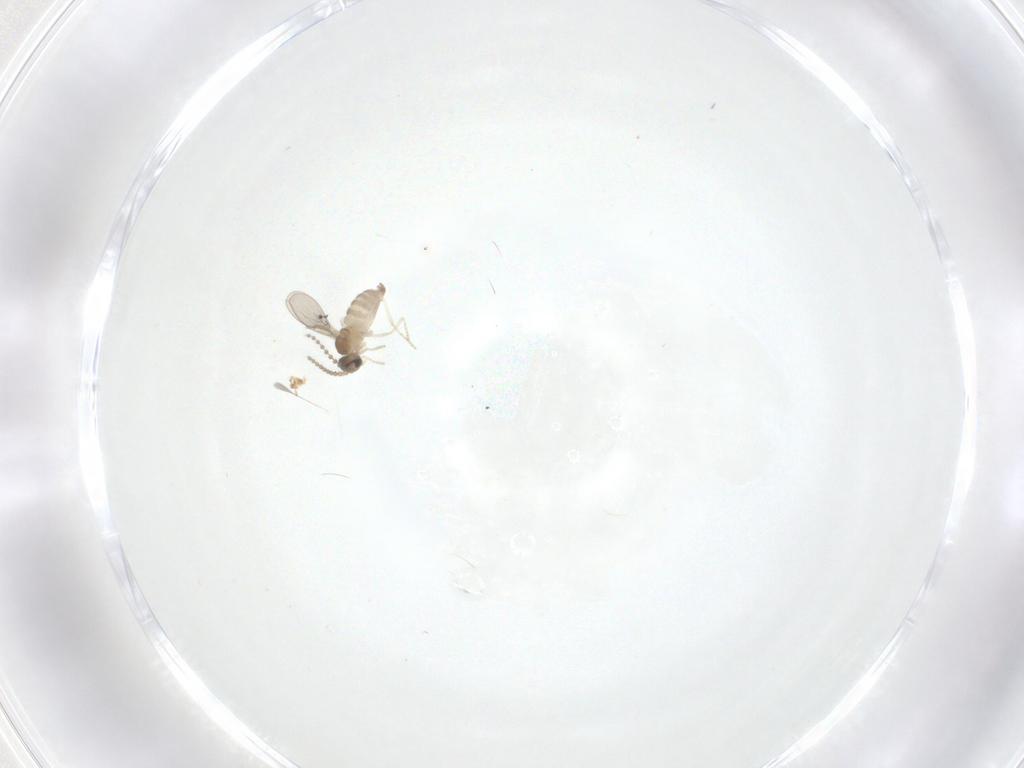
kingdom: Animalia
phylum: Arthropoda
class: Insecta
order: Diptera
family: Cecidomyiidae
